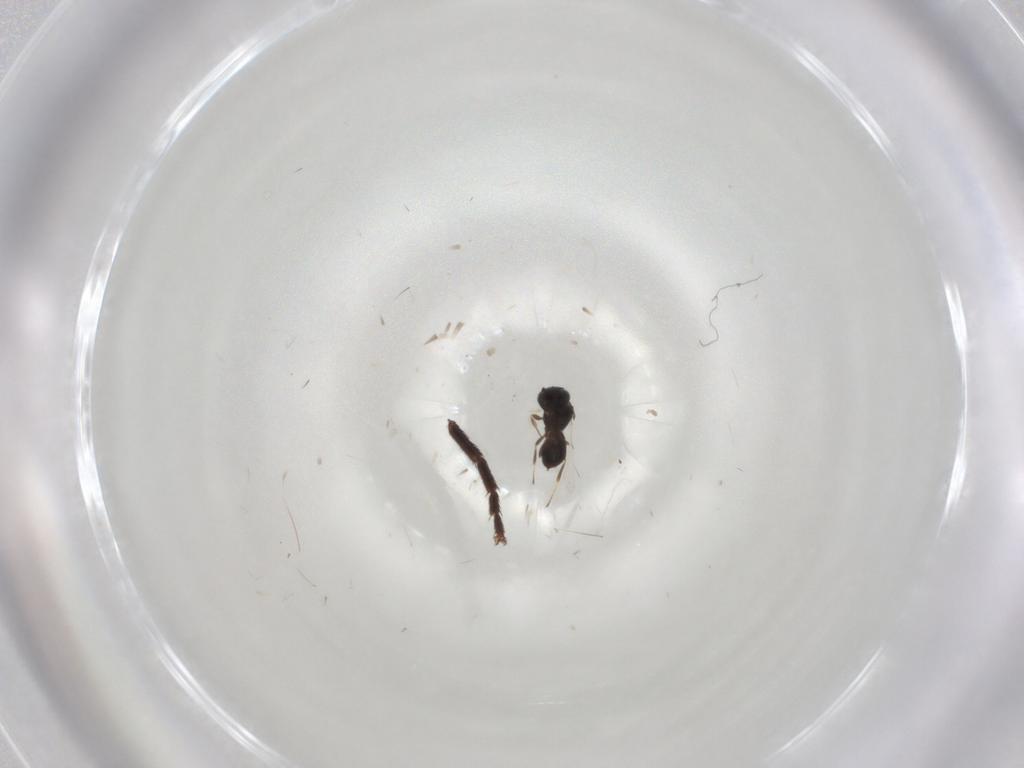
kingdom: Animalia
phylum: Arthropoda
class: Insecta
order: Hymenoptera
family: Scelionidae
